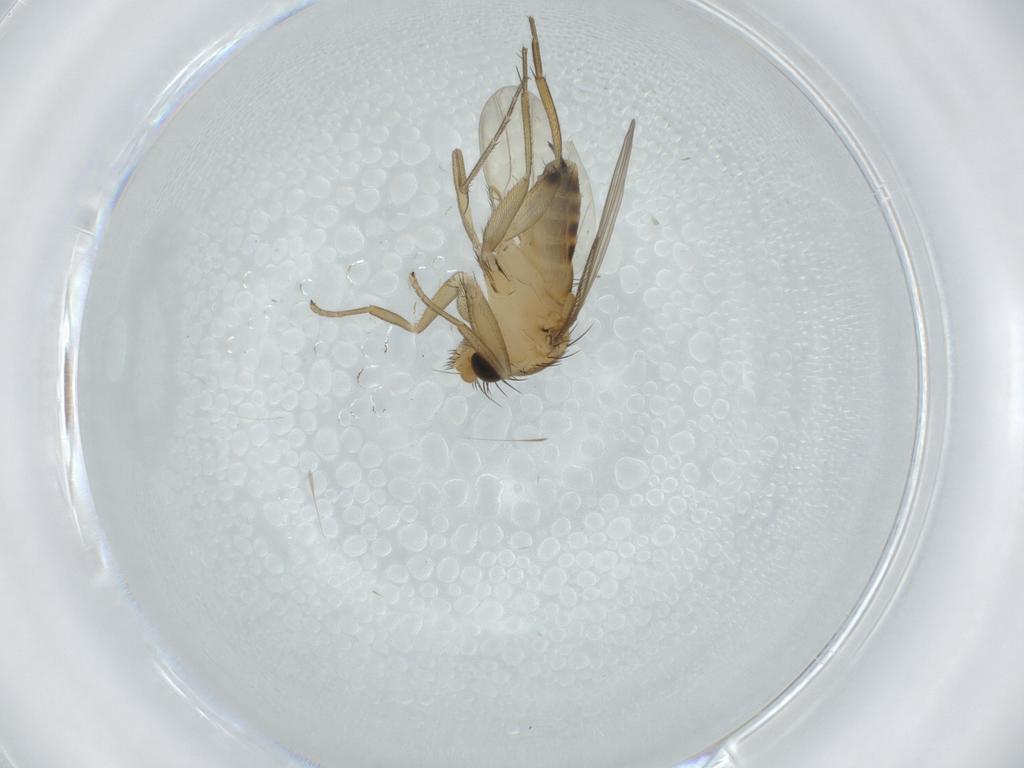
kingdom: Animalia
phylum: Arthropoda
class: Insecta
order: Diptera
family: Phoridae
